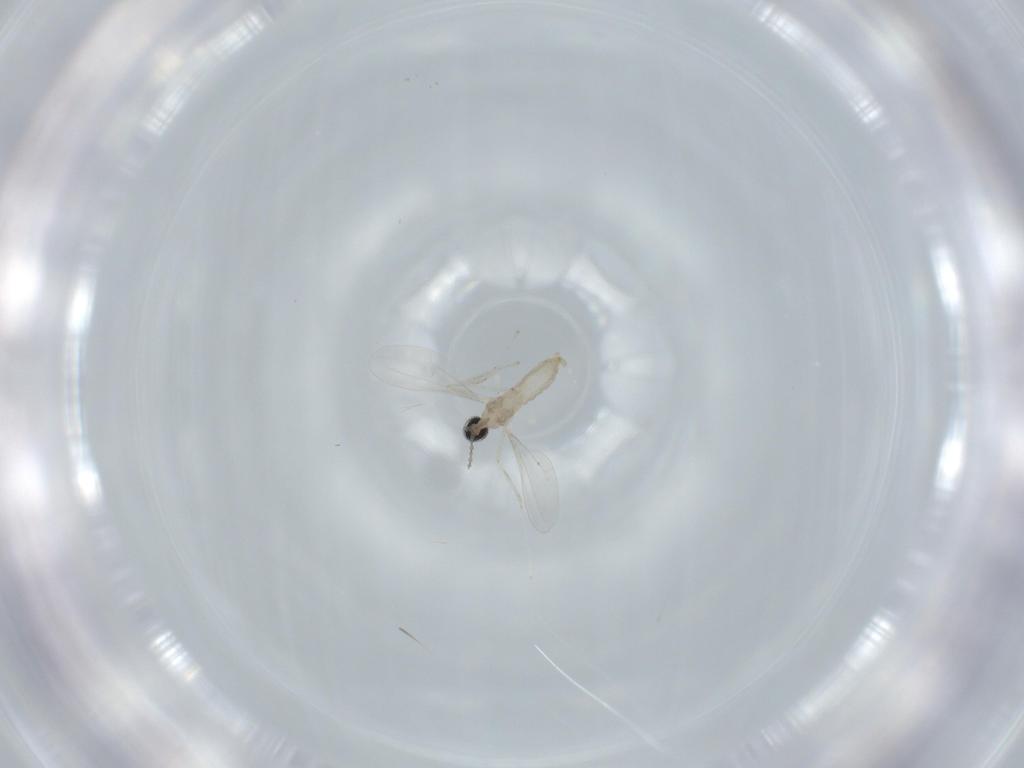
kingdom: Animalia
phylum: Arthropoda
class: Insecta
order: Diptera
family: Cecidomyiidae
